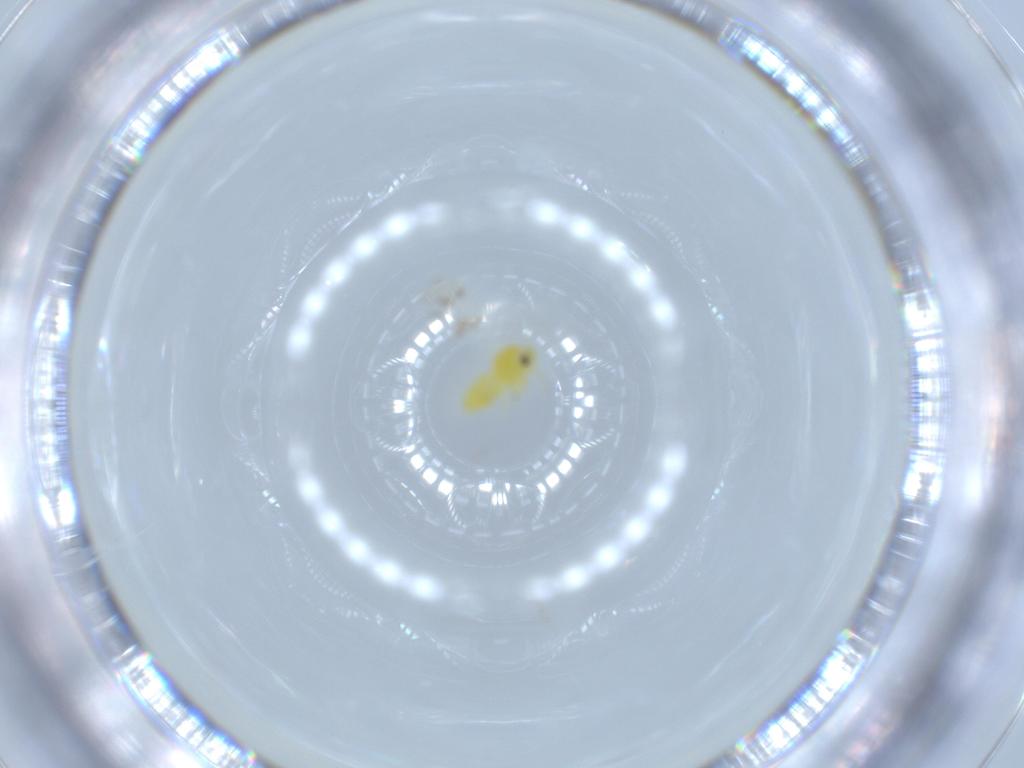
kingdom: Animalia
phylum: Arthropoda
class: Insecta
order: Hemiptera
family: Aleyrodidae
